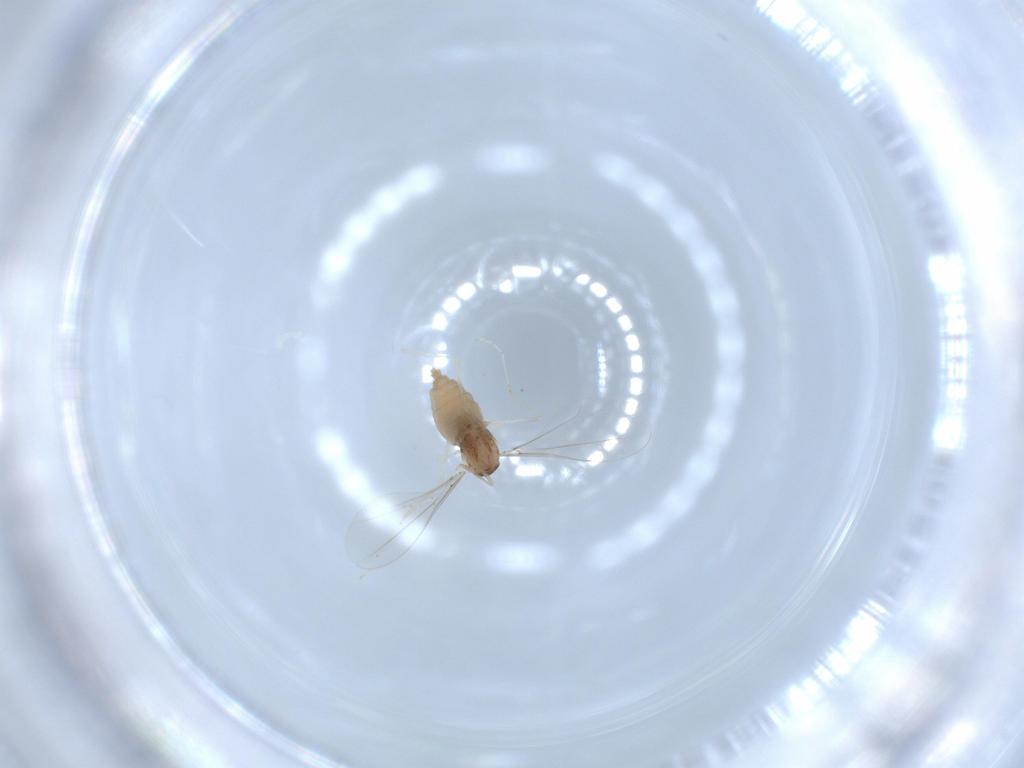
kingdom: Animalia
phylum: Arthropoda
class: Insecta
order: Diptera
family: Cecidomyiidae
